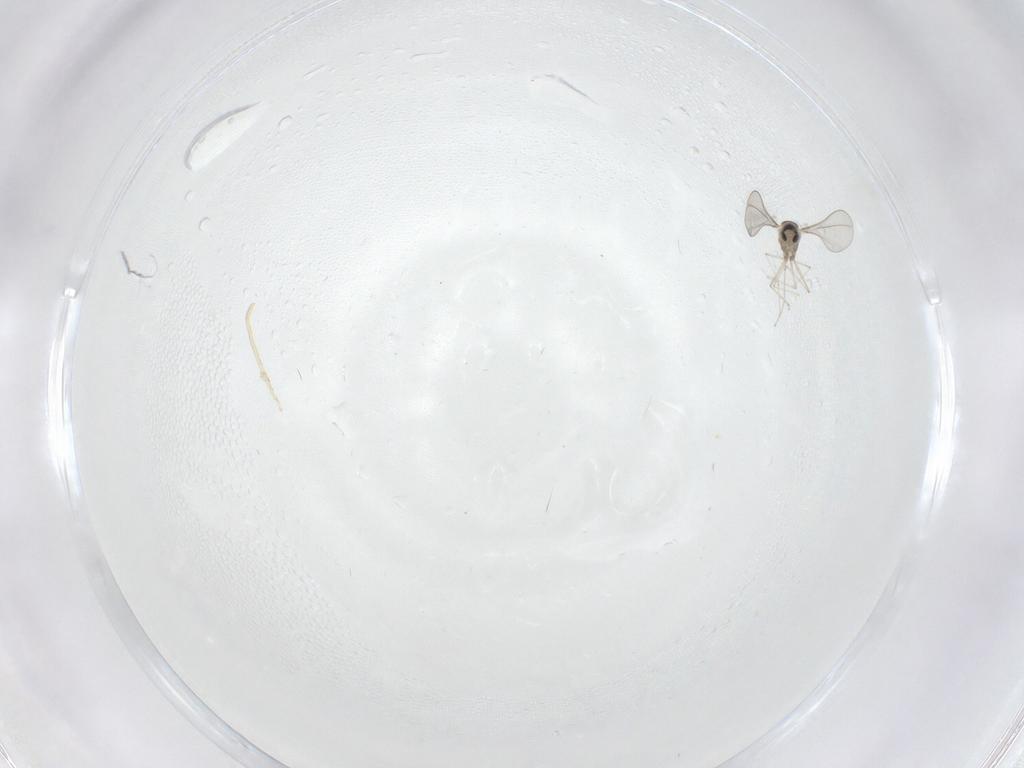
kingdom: Animalia
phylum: Arthropoda
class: Insecta
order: Diptera
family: Cecidomyiidae
